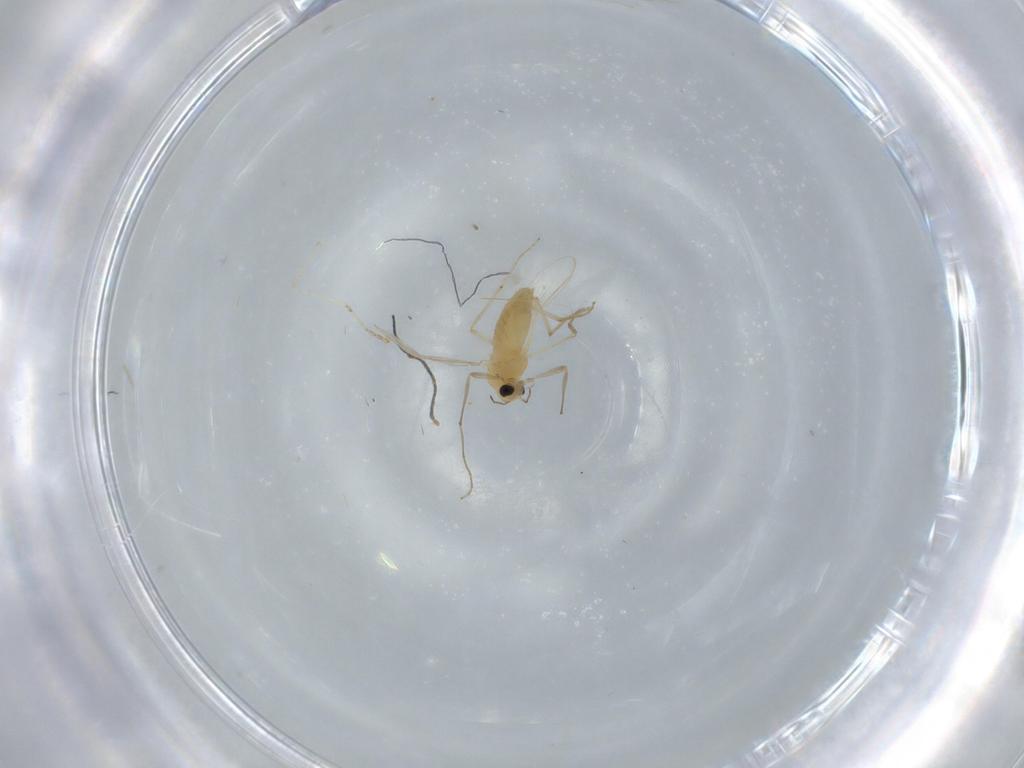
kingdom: Animalia
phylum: Arthropoda
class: Insecta
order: Diptera
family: Chironomidae
